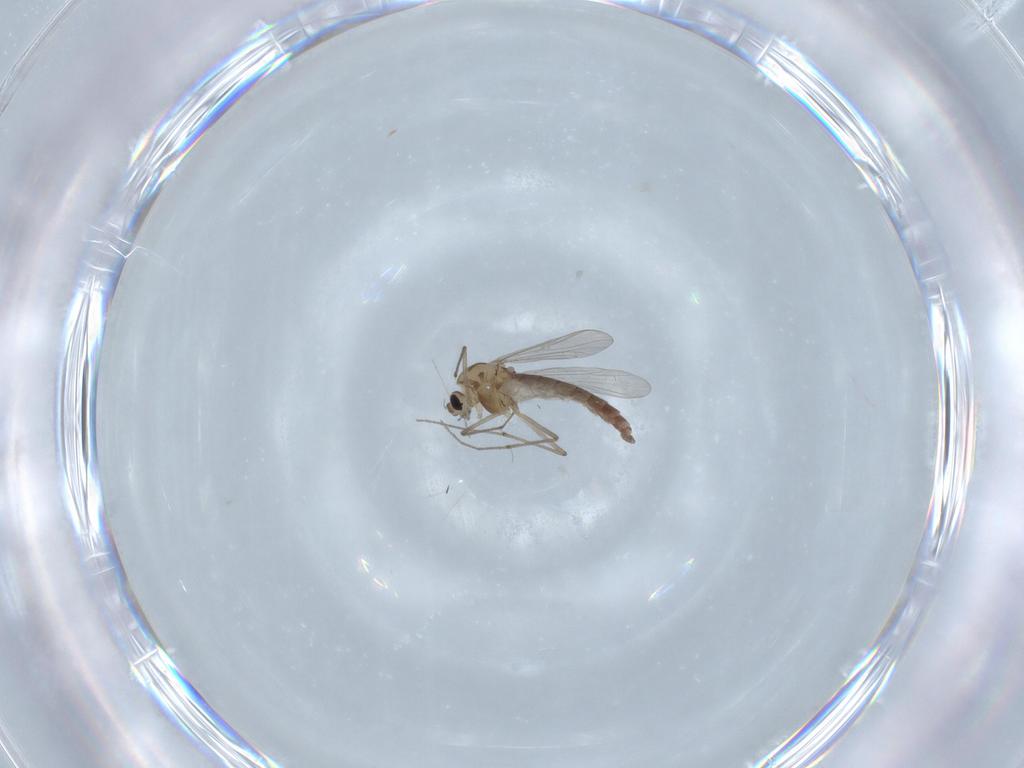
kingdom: Animalia
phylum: Arthropoda
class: Insecta
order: Diptera
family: Chironomidae
